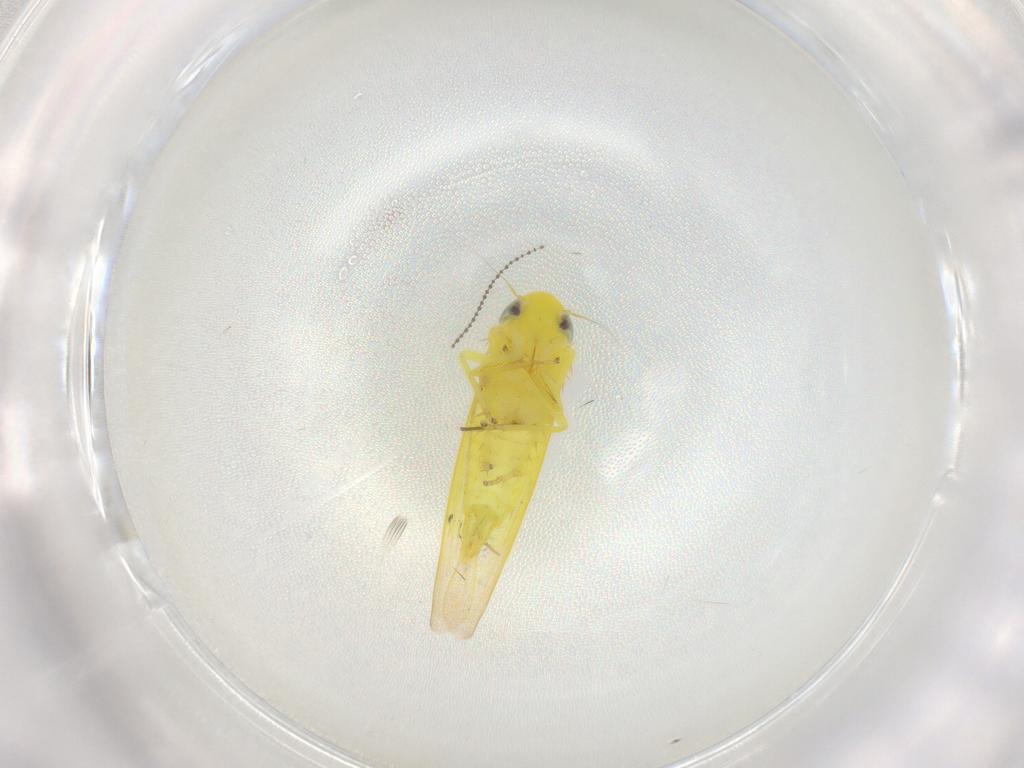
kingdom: Animalia
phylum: Arthropoda
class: Insecta
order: Hemiptera
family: Cicadellidae
